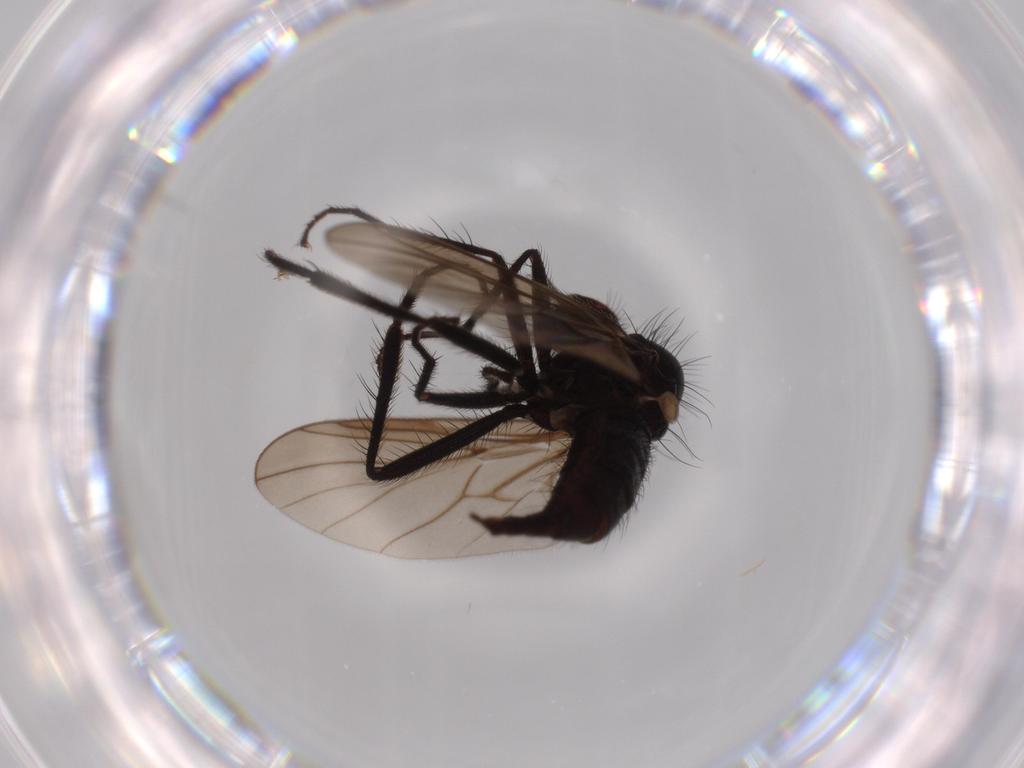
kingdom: Animalia
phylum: Arthropoda
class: Insecta
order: Diptera
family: Hybotidae
